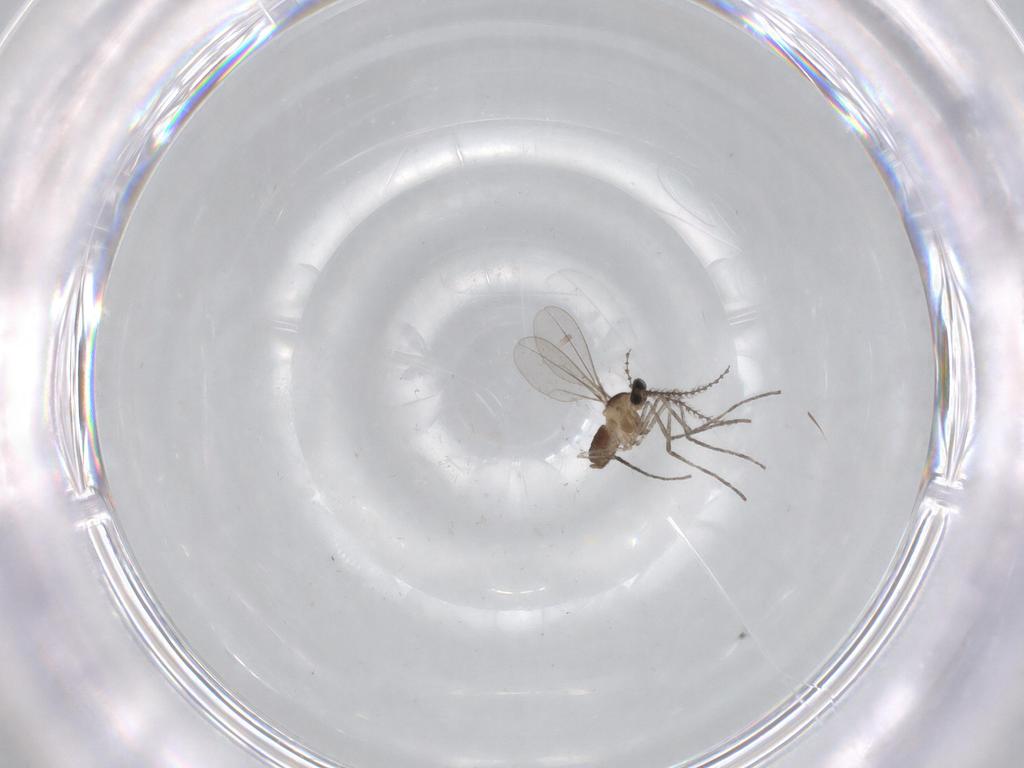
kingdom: Animalia
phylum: Arthropoda
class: Insecta
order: Diptera
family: Cecidomyiidae
